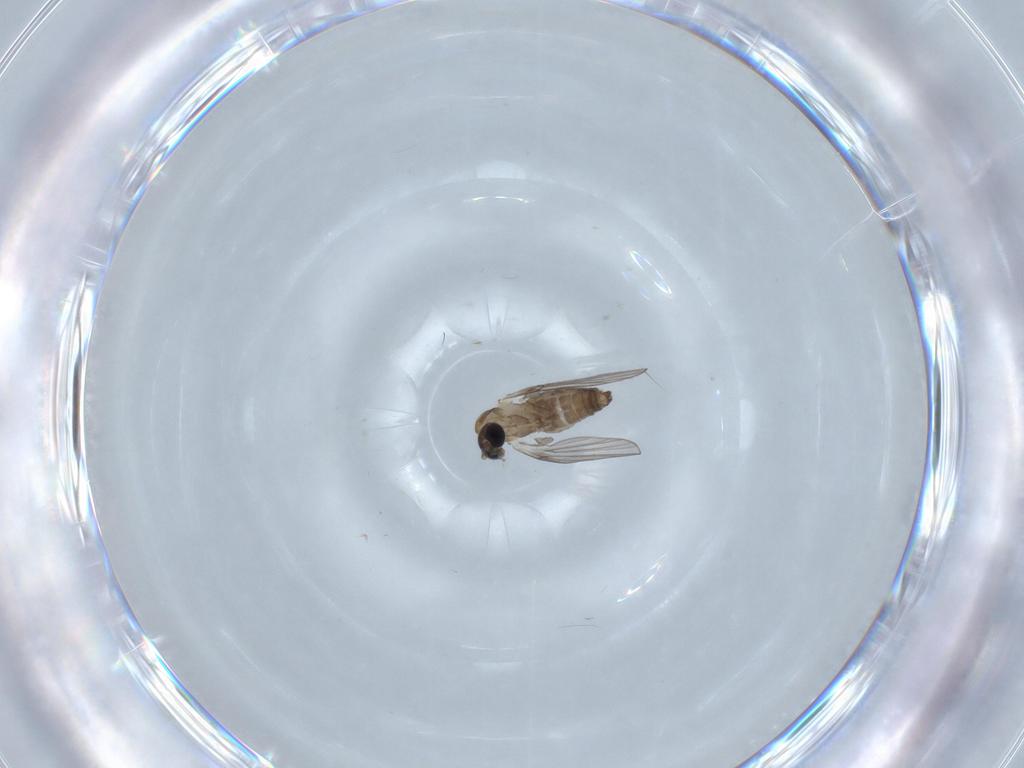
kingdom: Animalia
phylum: Arthropoda
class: Insecta
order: Diptera
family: Psychodidae
